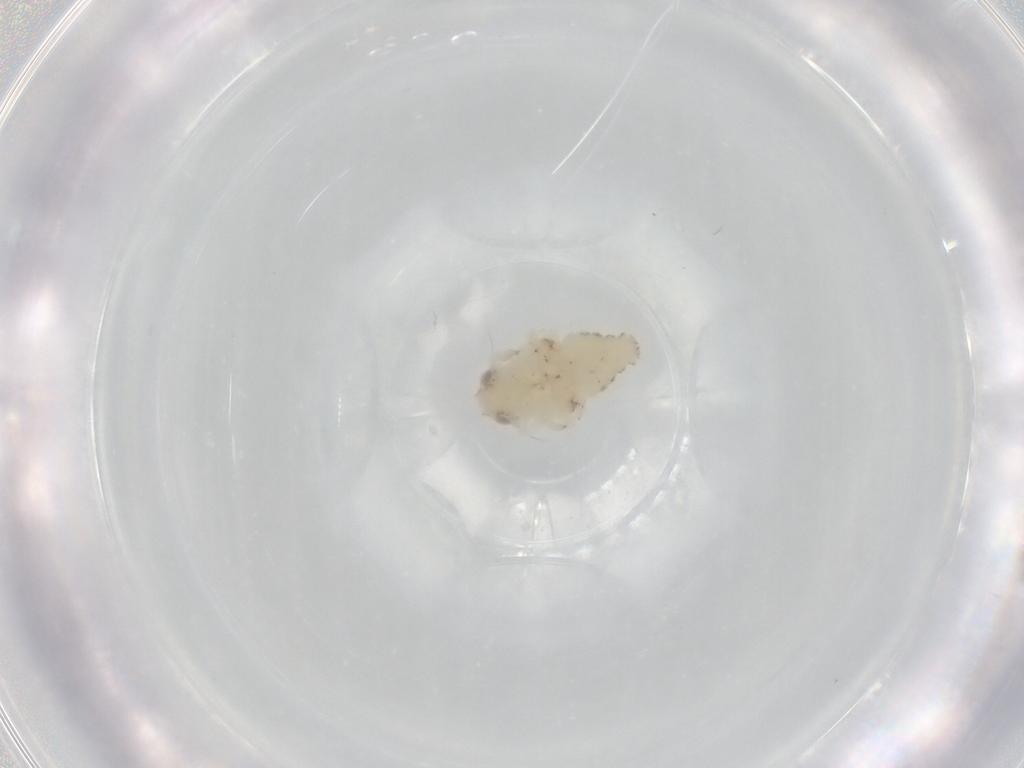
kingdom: Animalia
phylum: Arthropoda
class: Insecta
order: Hemiptera
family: Nogodinidae
